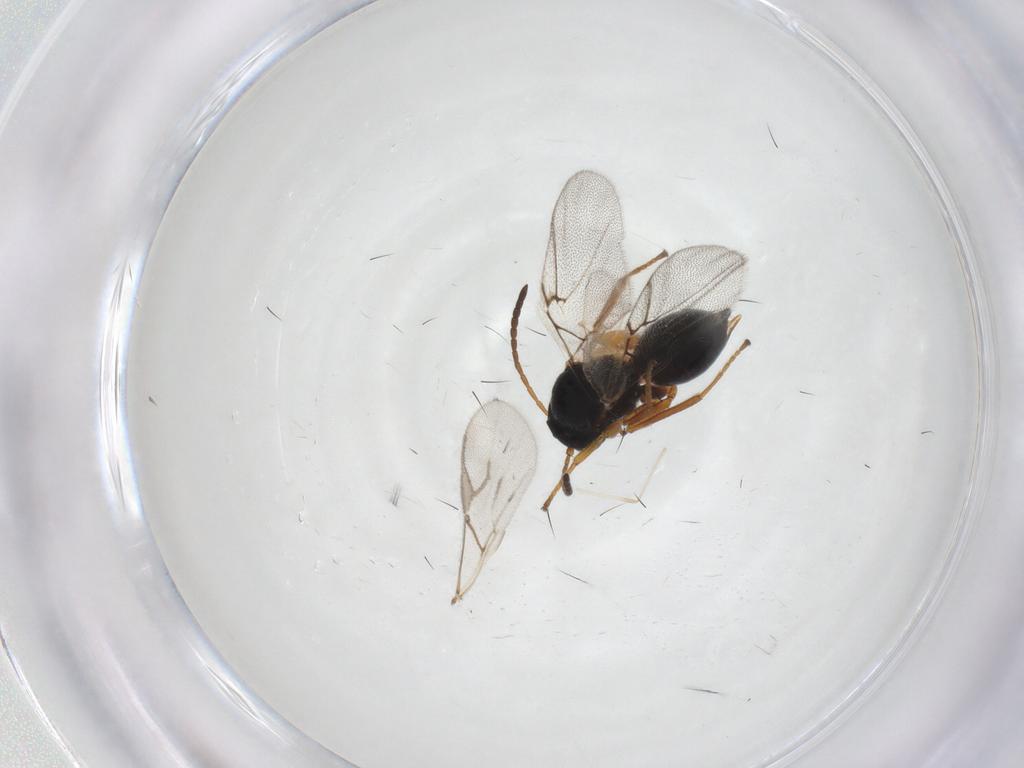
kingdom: Animalia
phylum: Arthropoda
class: Insecta
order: Hymenoptera
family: Cynipidae
